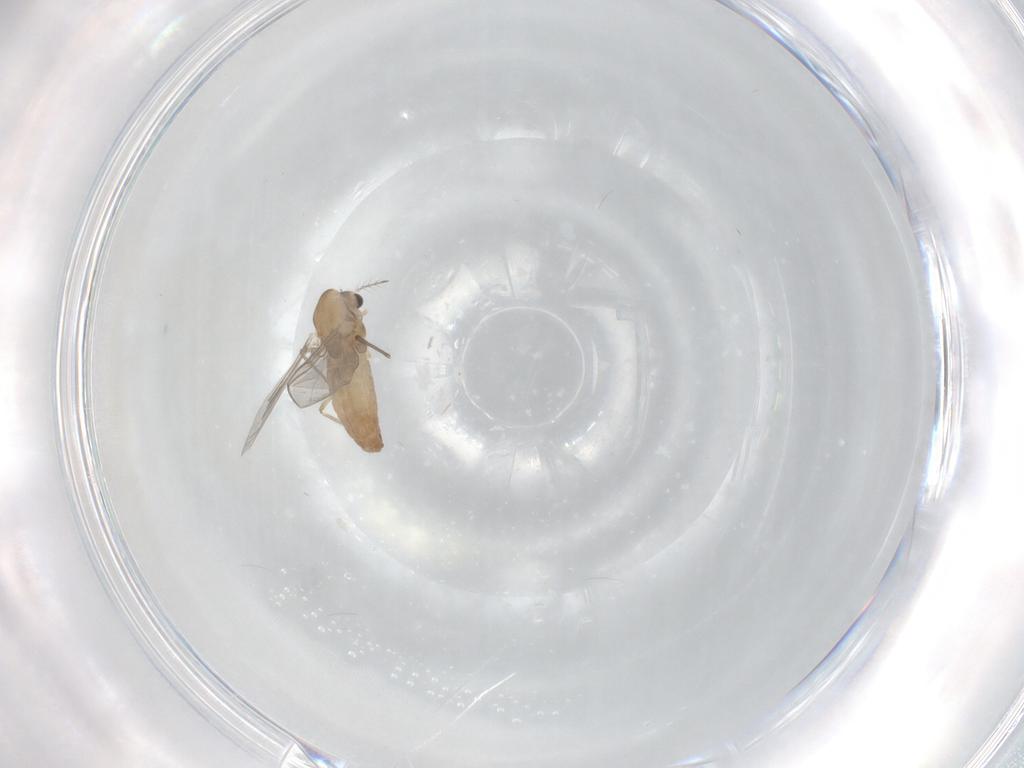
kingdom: Animalia
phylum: Arthropoda
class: Insecta
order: Diptera
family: Chironomidae
